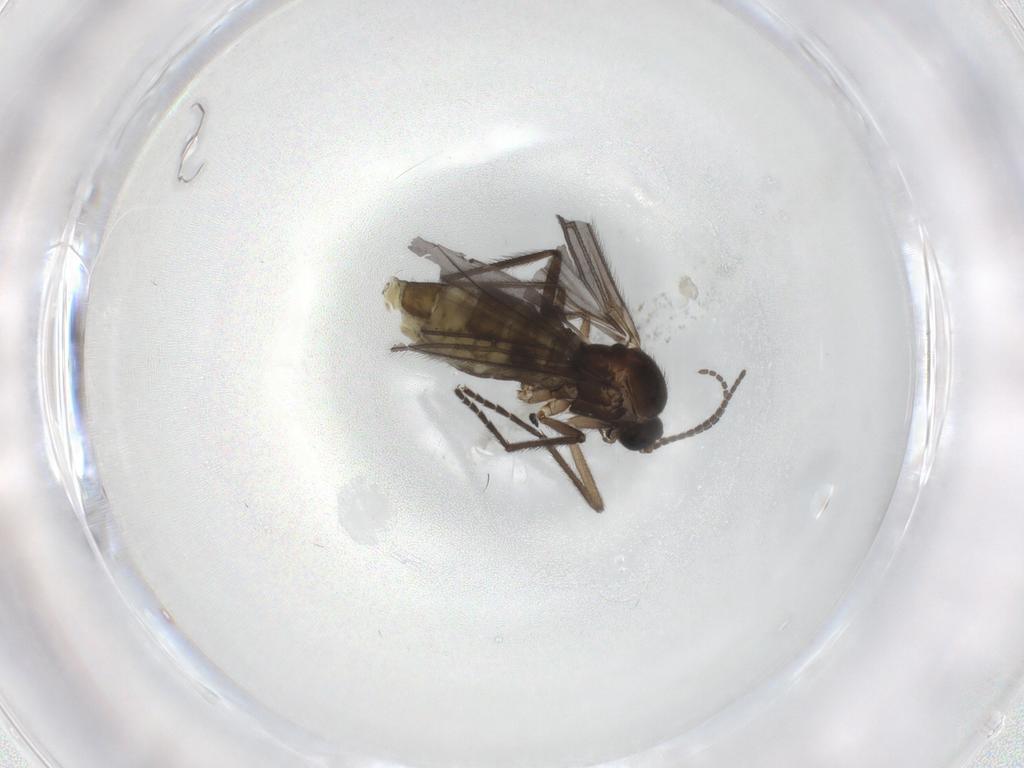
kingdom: Animalia
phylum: Arthropoda
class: Insecta
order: Diptera
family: Sciaridae
